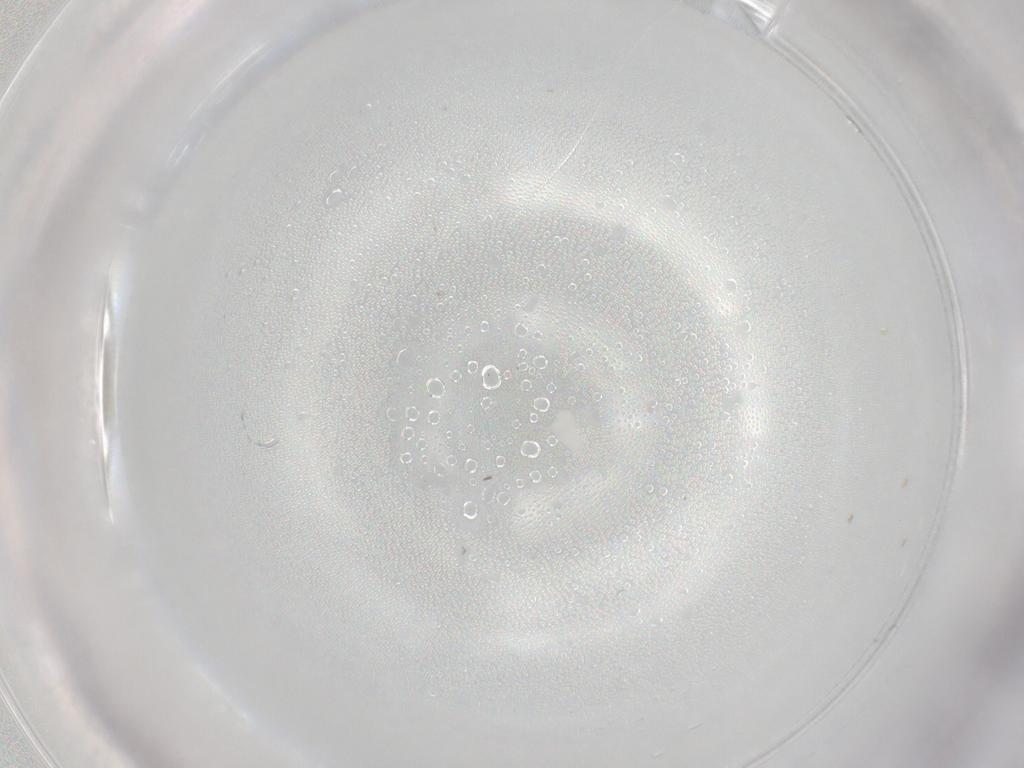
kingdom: Animalia
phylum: Arthropoda
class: Insecta
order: Coleoptera
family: Mordellidae
